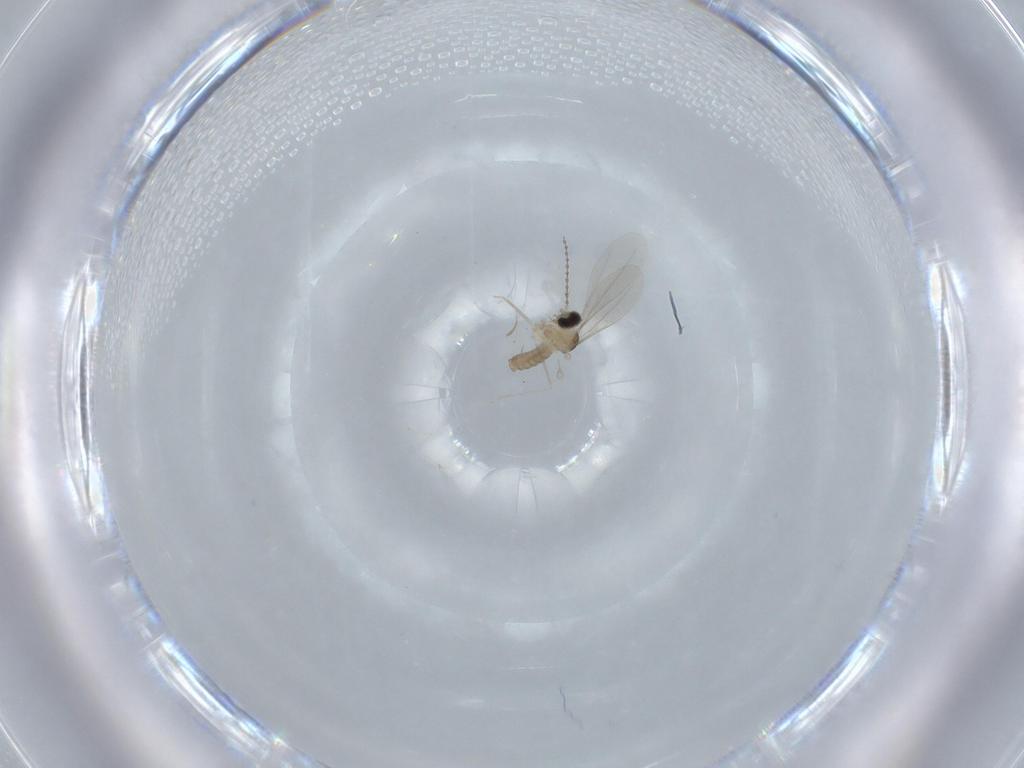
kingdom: Animalia
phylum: Arthropoda
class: Insecta
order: Diptera
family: Cecidomyiidae
